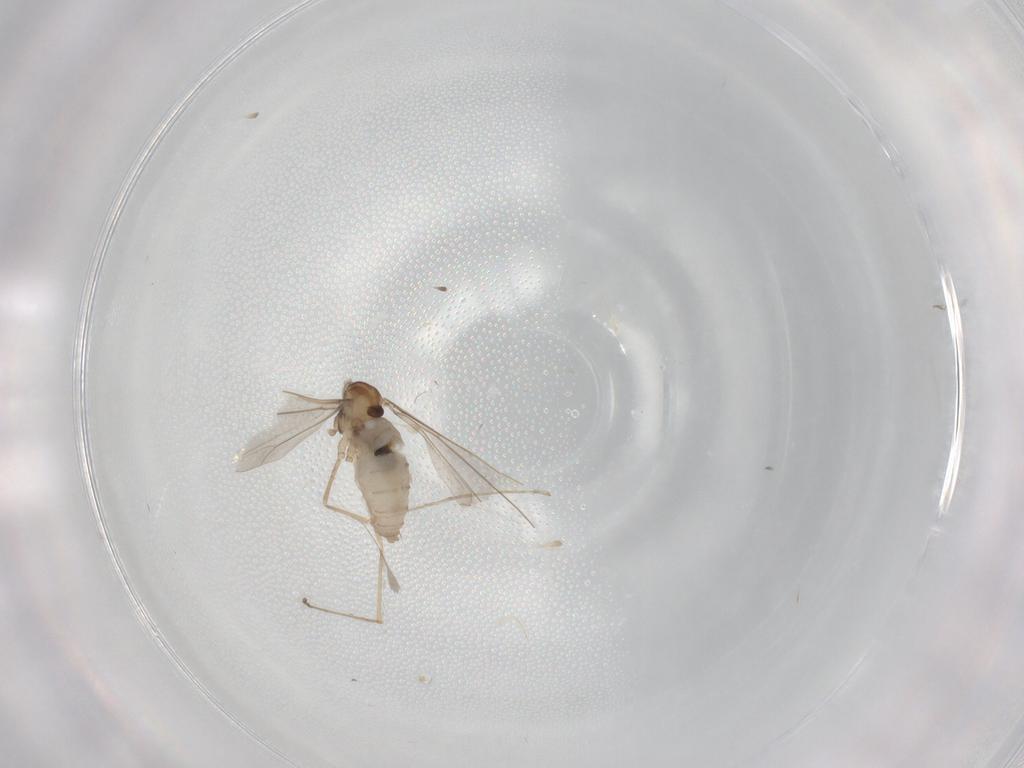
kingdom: Animalia
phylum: Arthropoda
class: Insecta
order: Diptera
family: Cecidomyiidae
